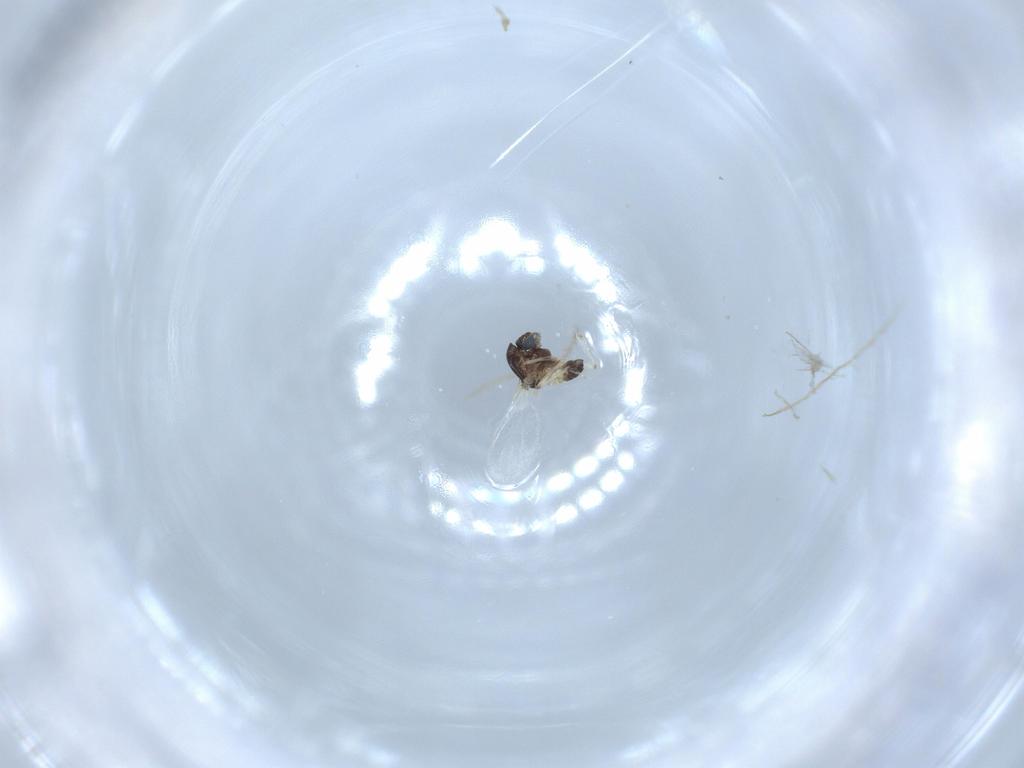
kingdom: Animalia
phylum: Arthropoda
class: Insecta
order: Diptera
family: Chironomidae
